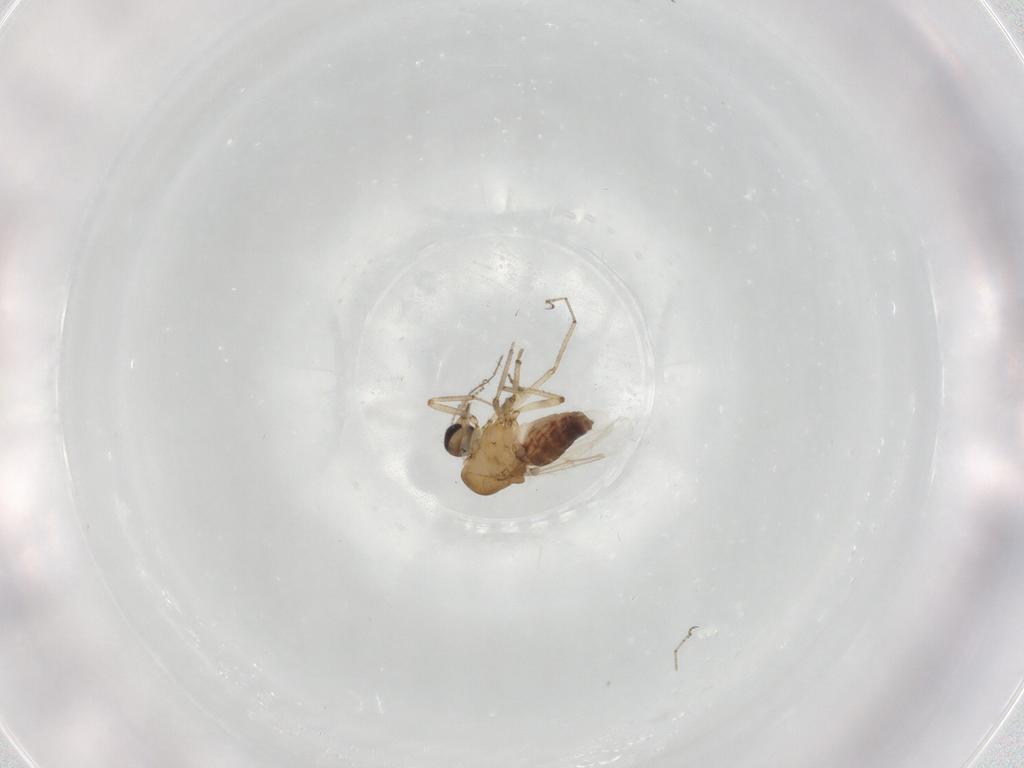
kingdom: Animalia
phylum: Arthropoda
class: Insecta
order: Diptera
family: Ceratopogonidae
